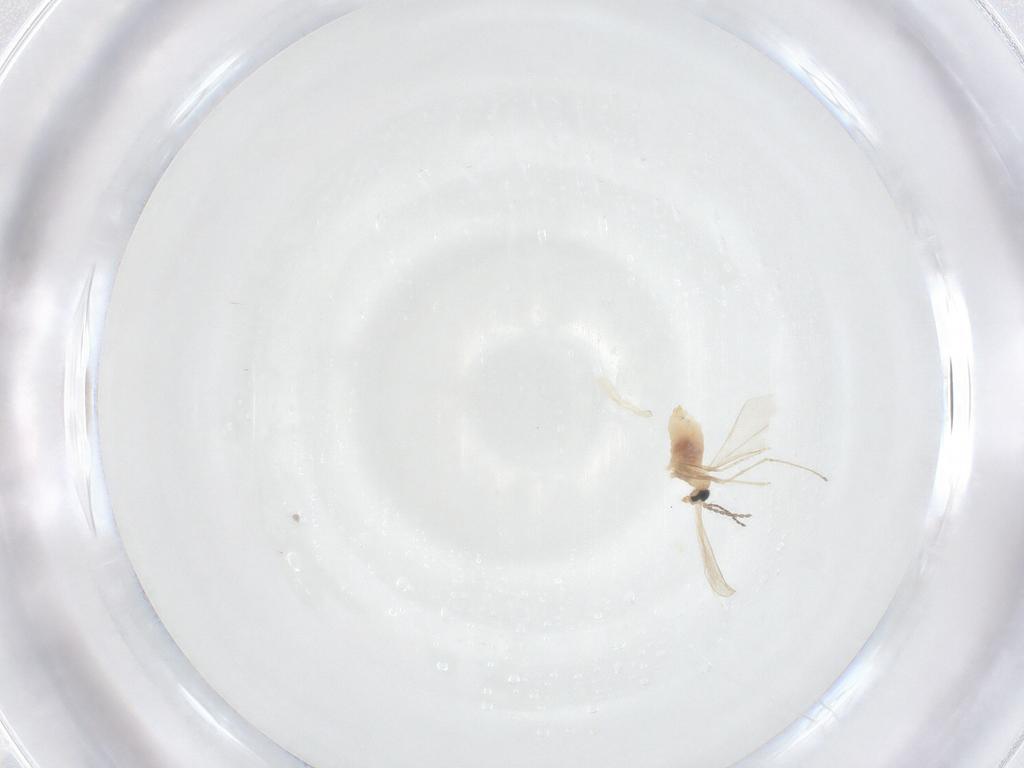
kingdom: Animalia
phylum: Arthropoda
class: Insecta
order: Diptera
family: Cecidomyiidae
